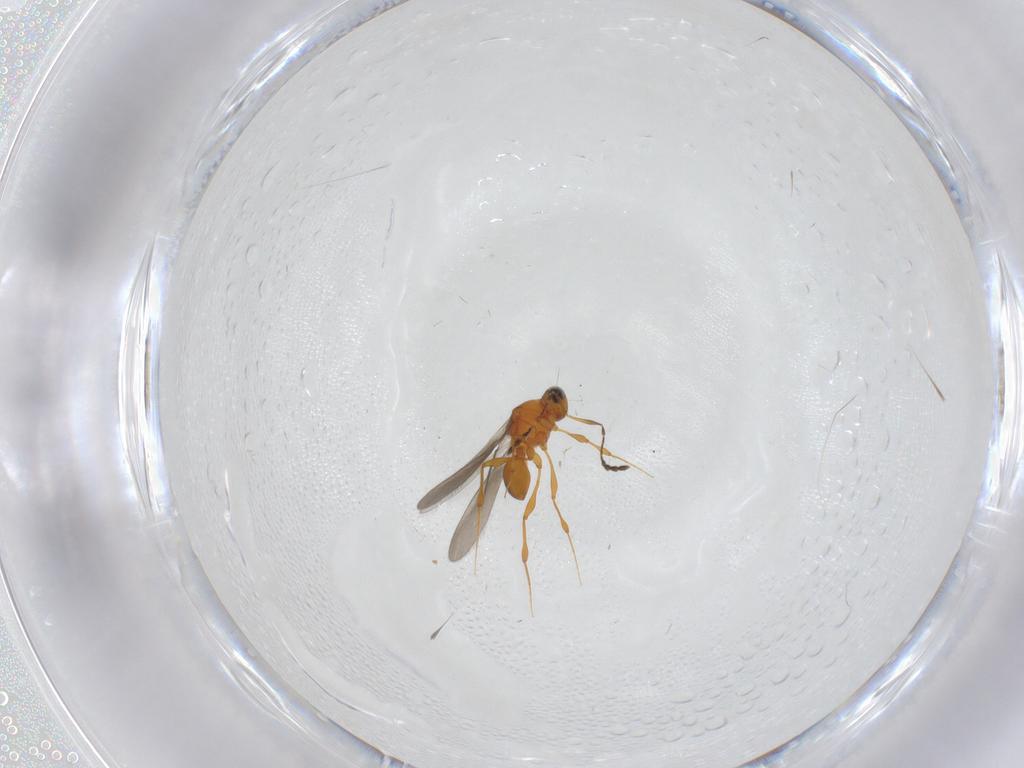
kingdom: Animalia
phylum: Arthropoda
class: Insecta
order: Hymenoptera
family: Platygastridae
